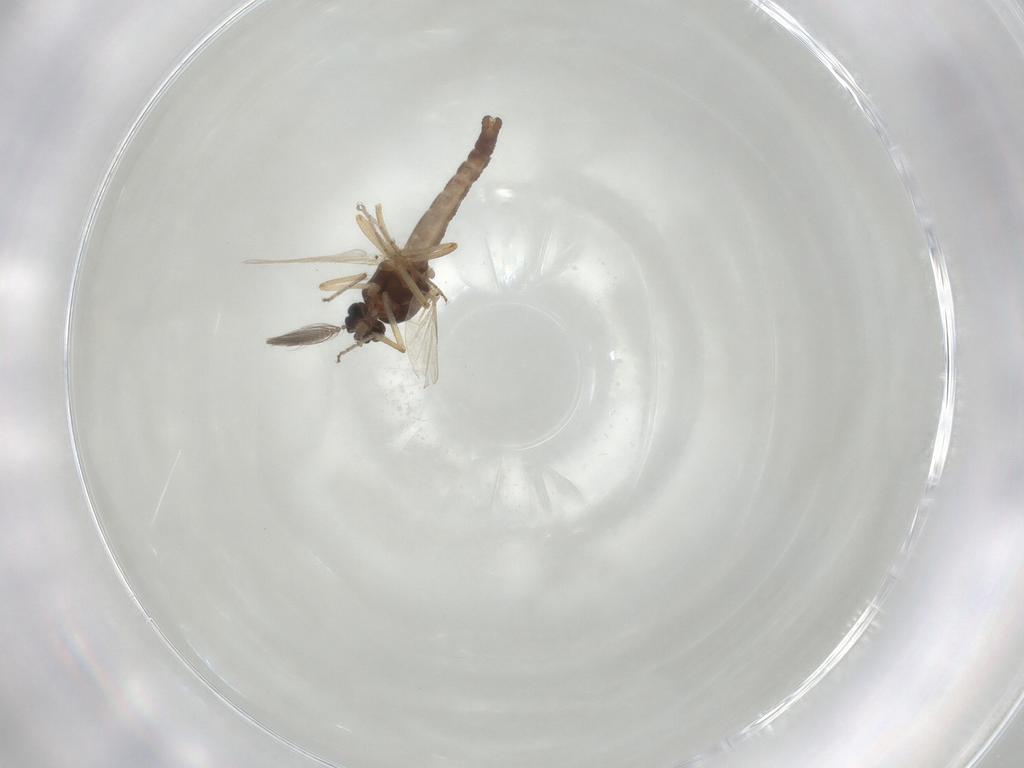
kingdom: Animalia
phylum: Arthropoda
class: Insecta
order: Diptera
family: Ceratopogonidae
